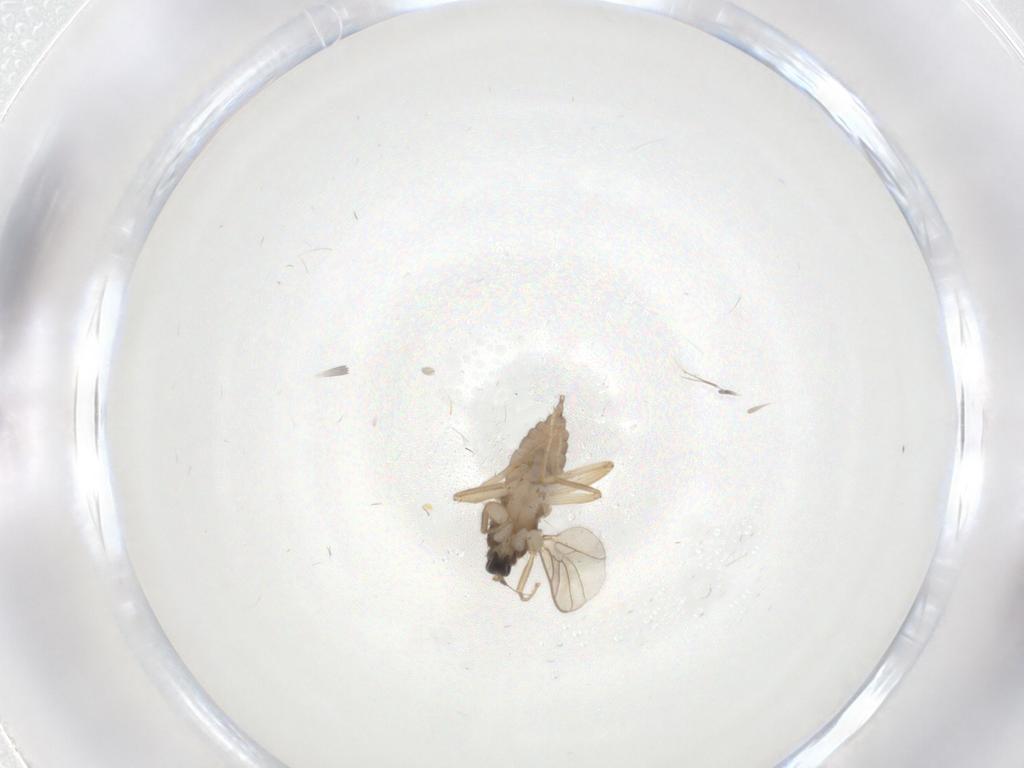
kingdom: Animalia
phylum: Arthropoda
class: Insecta
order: Diptera
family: Hybotidae
